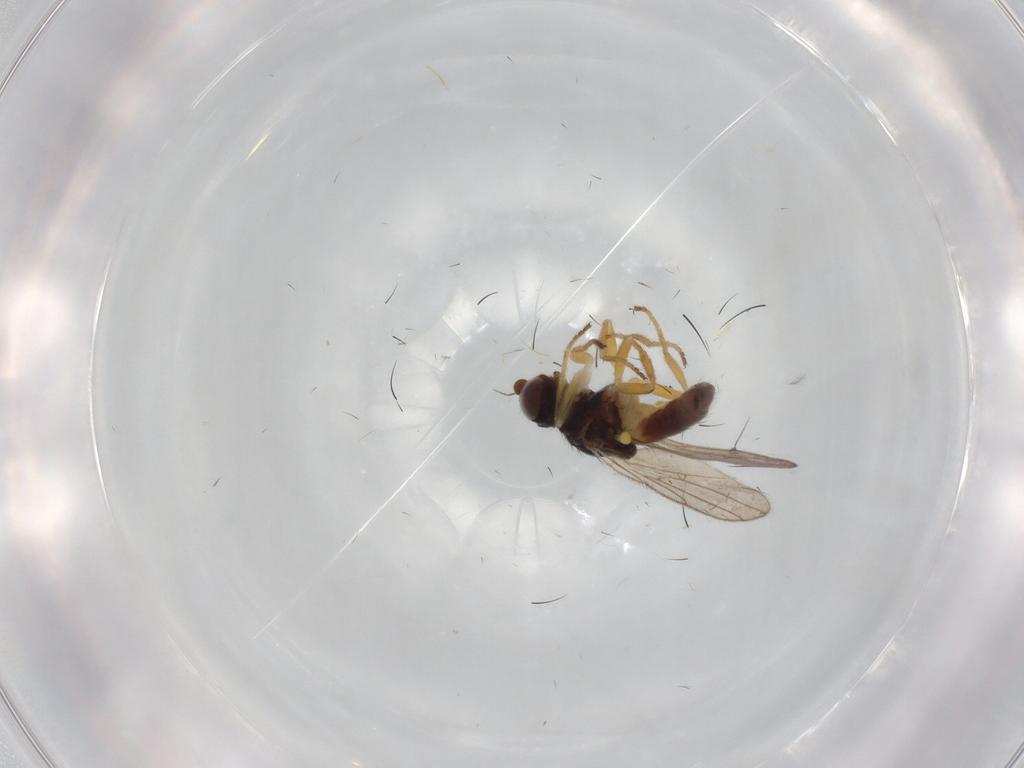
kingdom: Animalia
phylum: Arthropoda
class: Insecta
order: Diptera
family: Chloropidae
